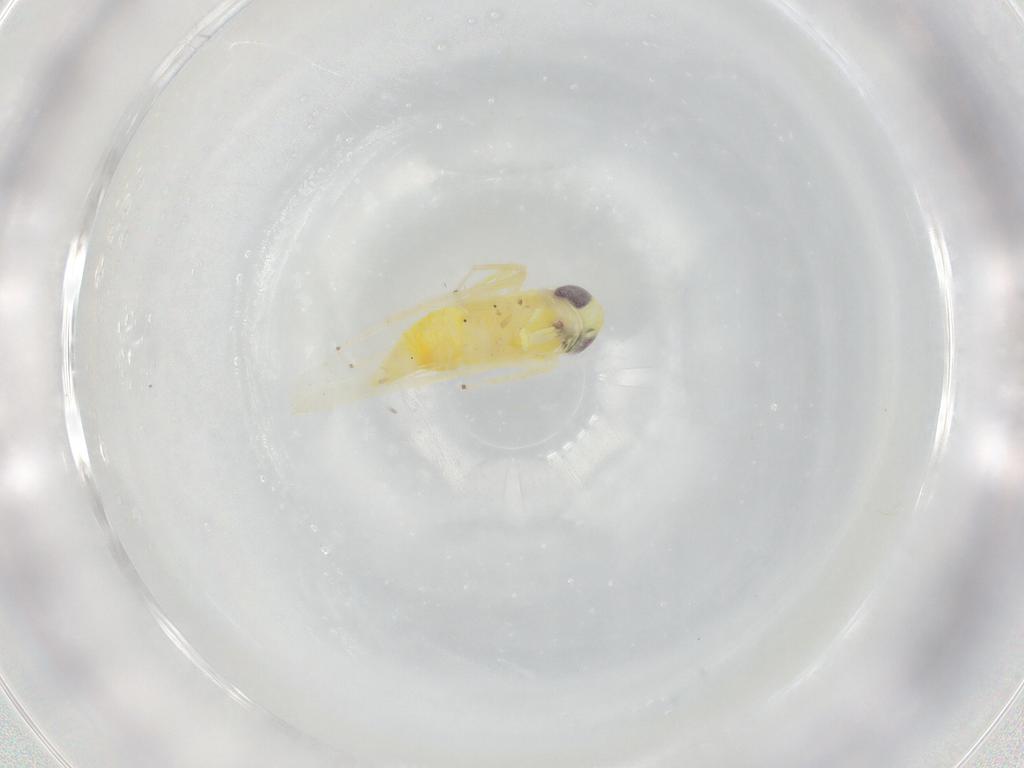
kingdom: Animalia
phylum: Arthropoda
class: Insecta
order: Hemiptera
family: Cicadellidae
